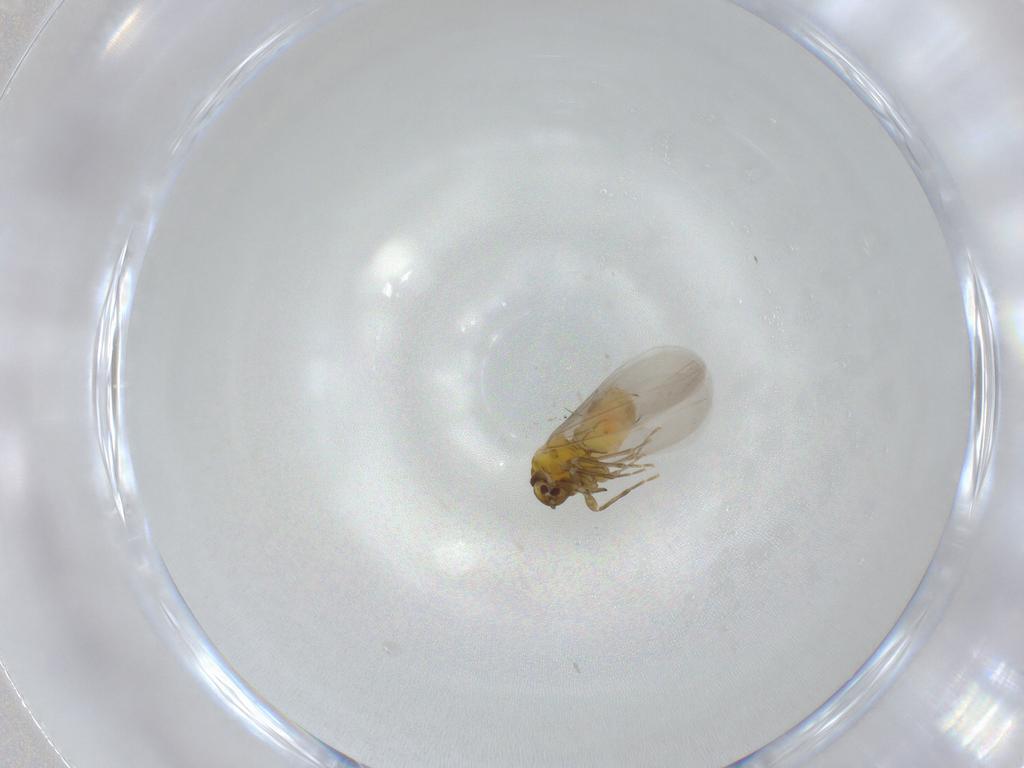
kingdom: Animalia
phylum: Arthropoda
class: Insecta
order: Hemiptera
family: Aleyrodidae
